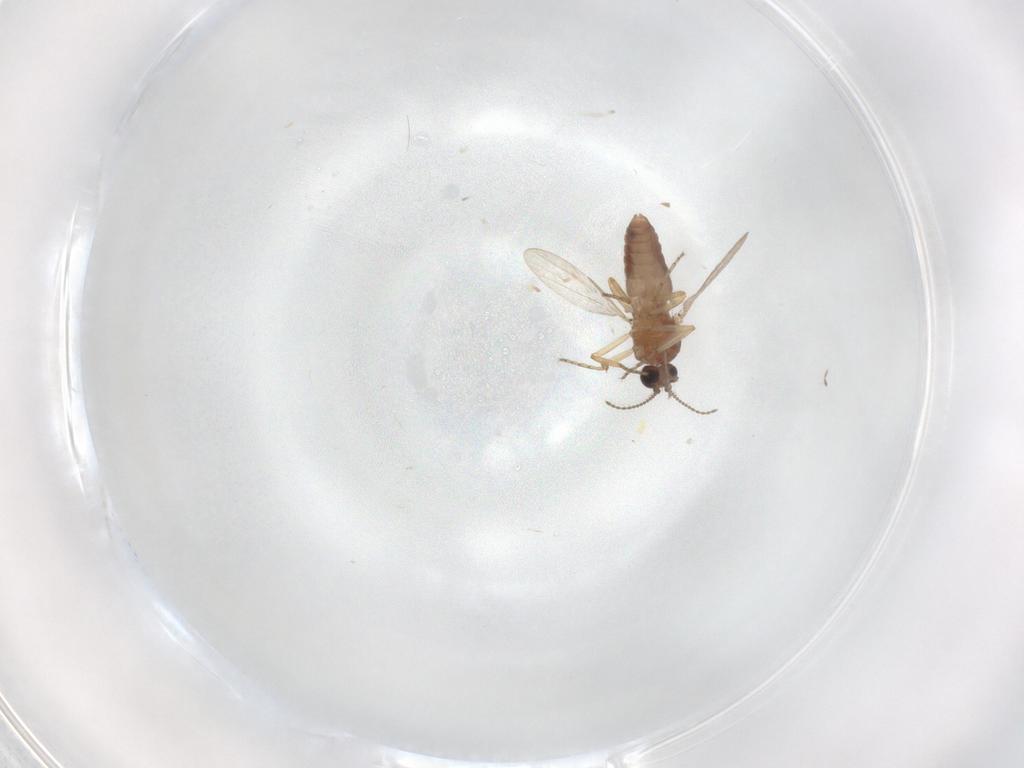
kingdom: Animalia
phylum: Arthropoda
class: Insecta
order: Diptera
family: Ceratopogonidae
